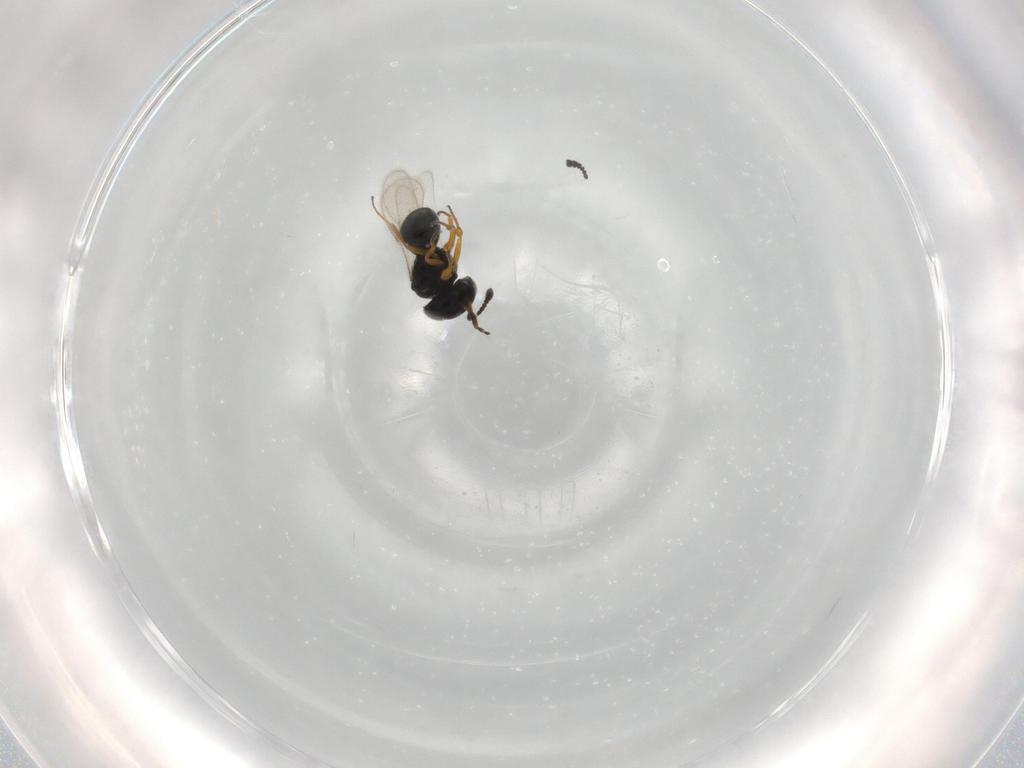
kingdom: Animalia
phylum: Arthropoda
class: Insecta
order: Hymenoptera
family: Scelionidae
